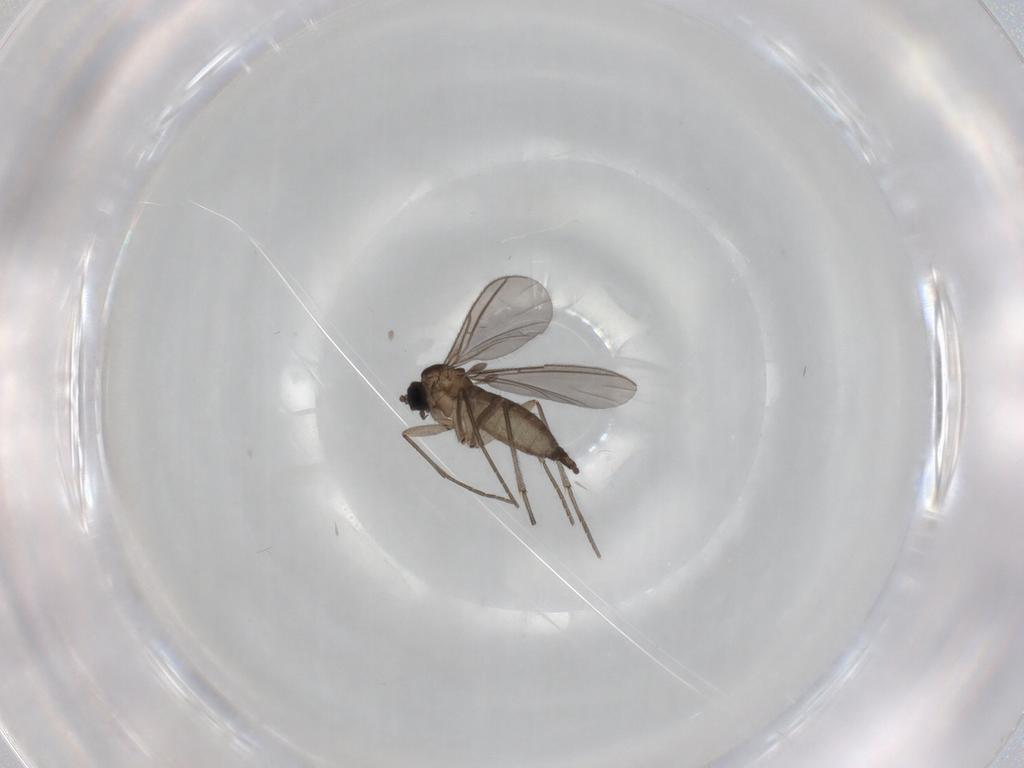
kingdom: Animalia
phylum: Arthropoda
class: Insecta
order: Diptera
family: Sciaridae
